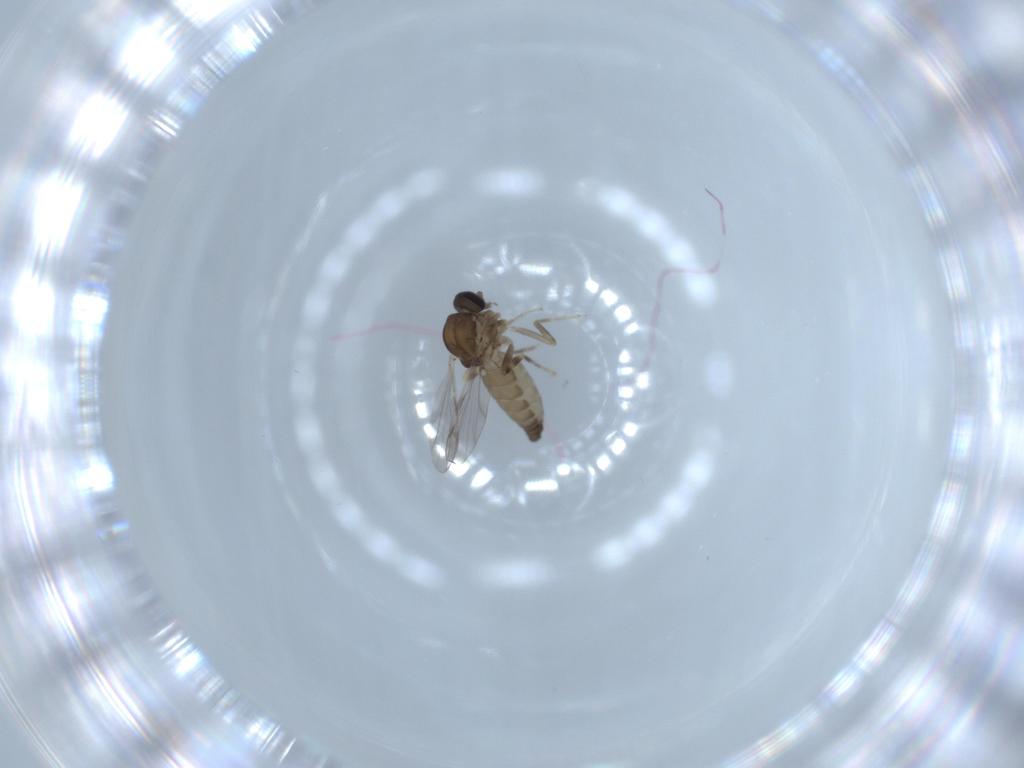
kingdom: Animalia
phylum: Arthropoda
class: Insecta
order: Diptera
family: Ceratopogonidae
